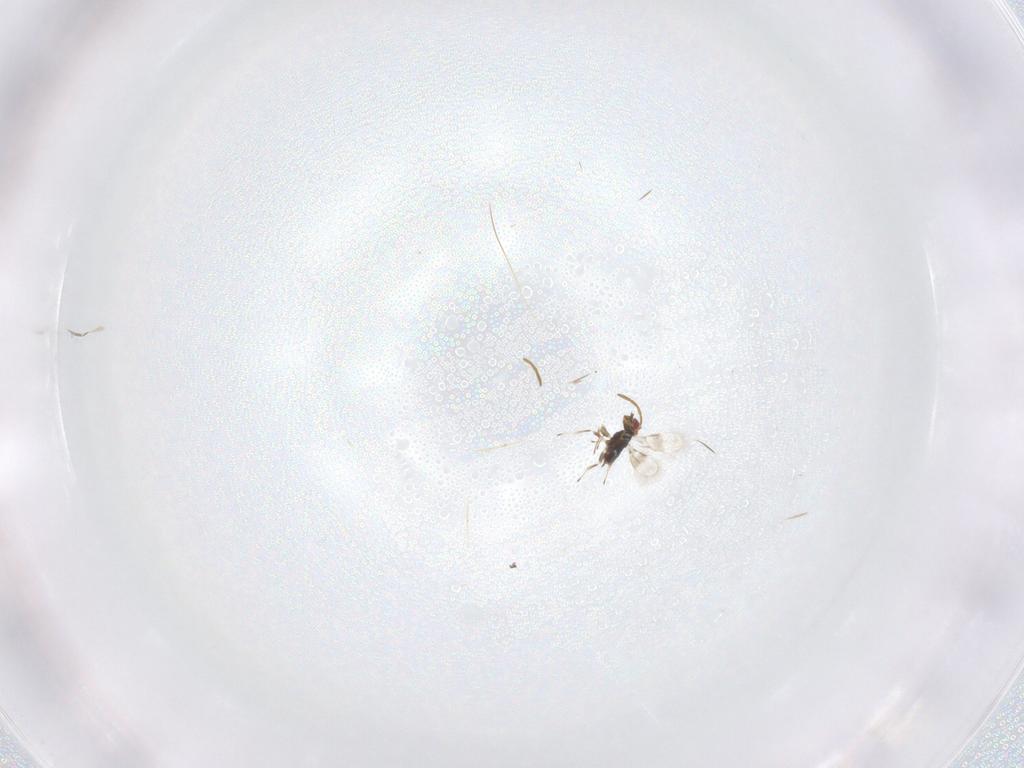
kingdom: Animalia
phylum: Arthropoda
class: Insecta
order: Hymenoptera
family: Azotidae
